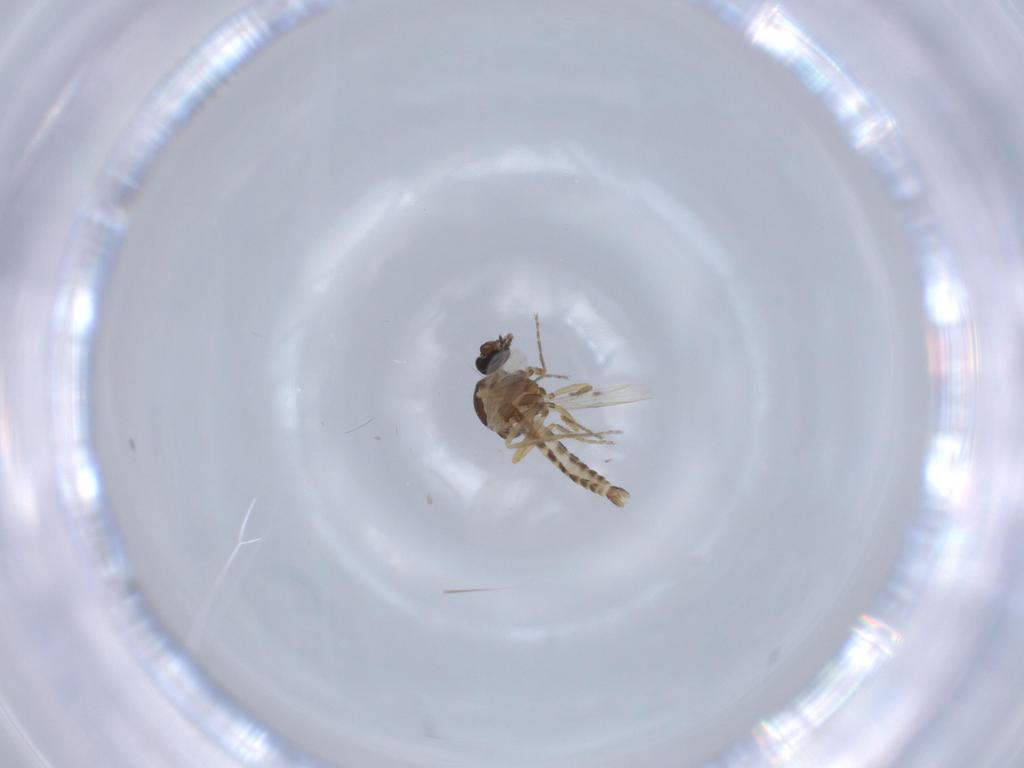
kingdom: Animalia
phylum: Arthropoda
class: Insecta
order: Diptera
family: Ceratopogonidae
